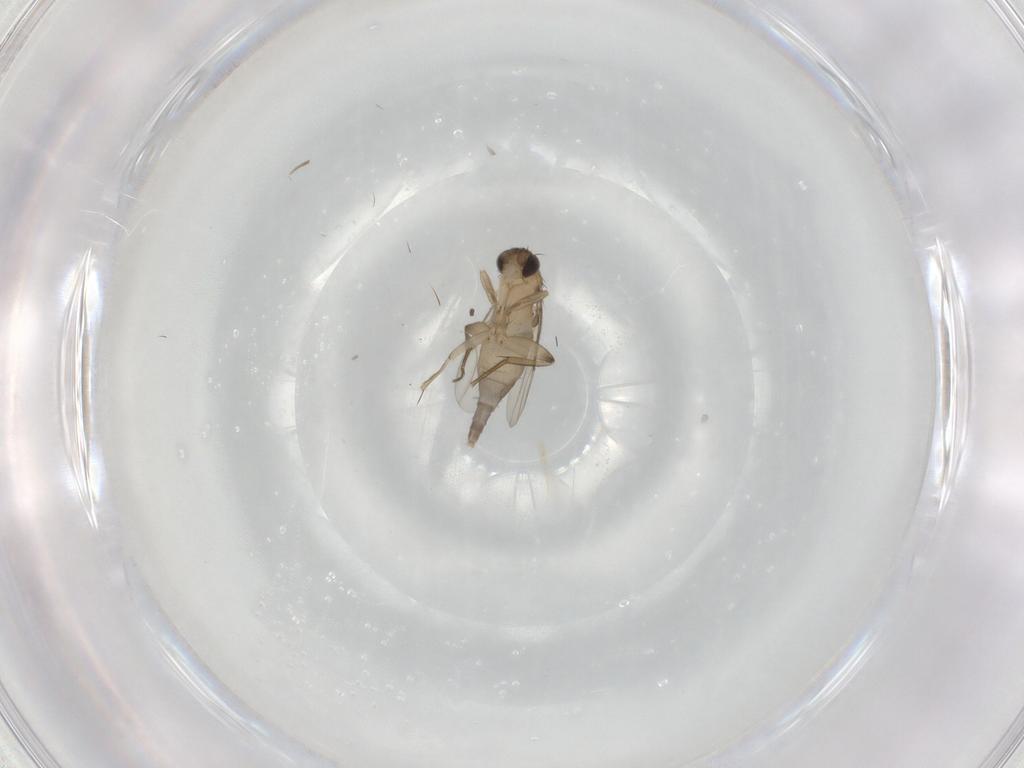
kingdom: Animalia
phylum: Arthropoda
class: Insecta
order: Diptera
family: Phoridae
